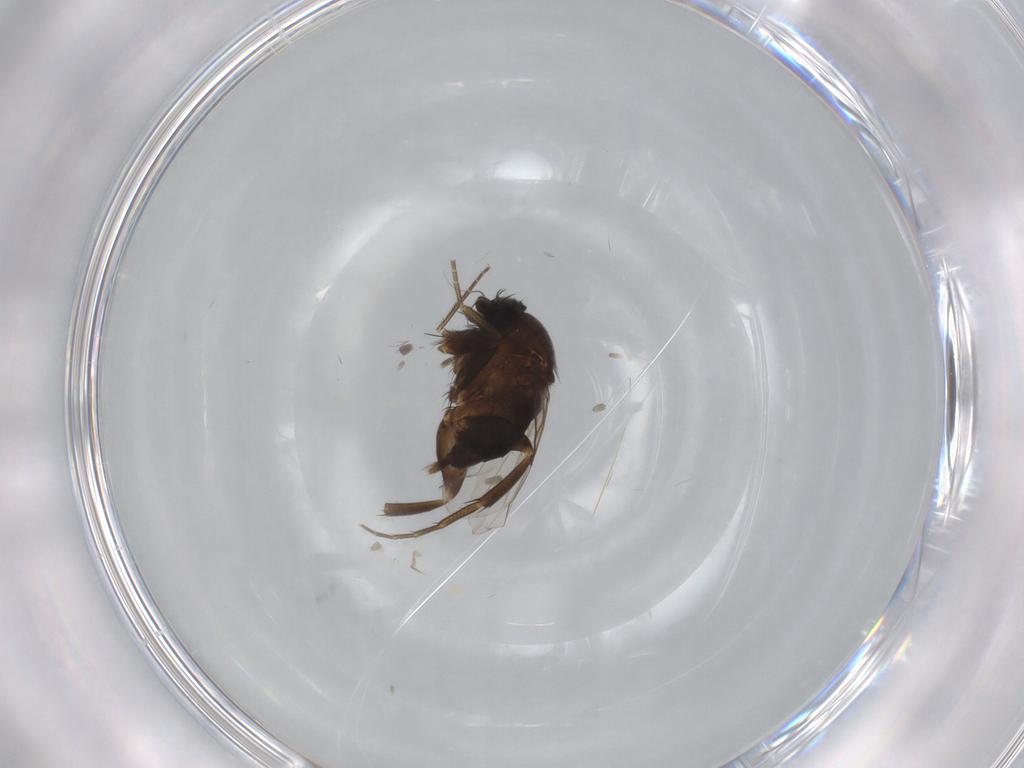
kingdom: Animalia
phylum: Arthropoda
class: Insecta
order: Diptera
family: Phoridae
